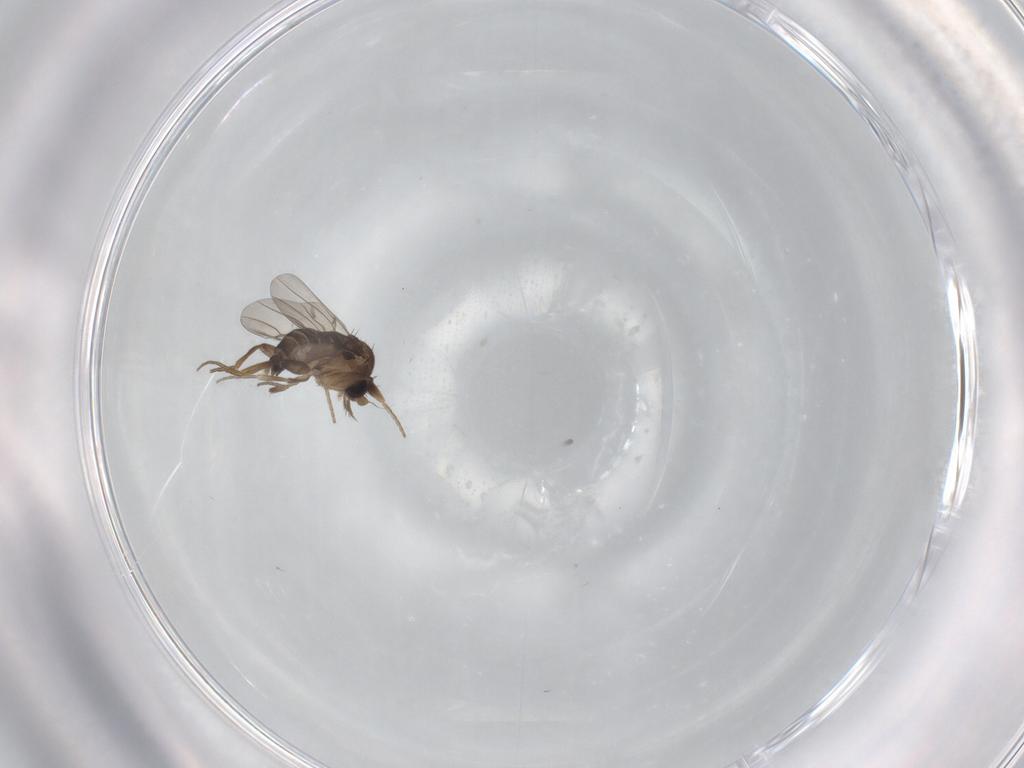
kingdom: Animalia
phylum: Arthropoda
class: Insecta
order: Diptera
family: Phoridae
